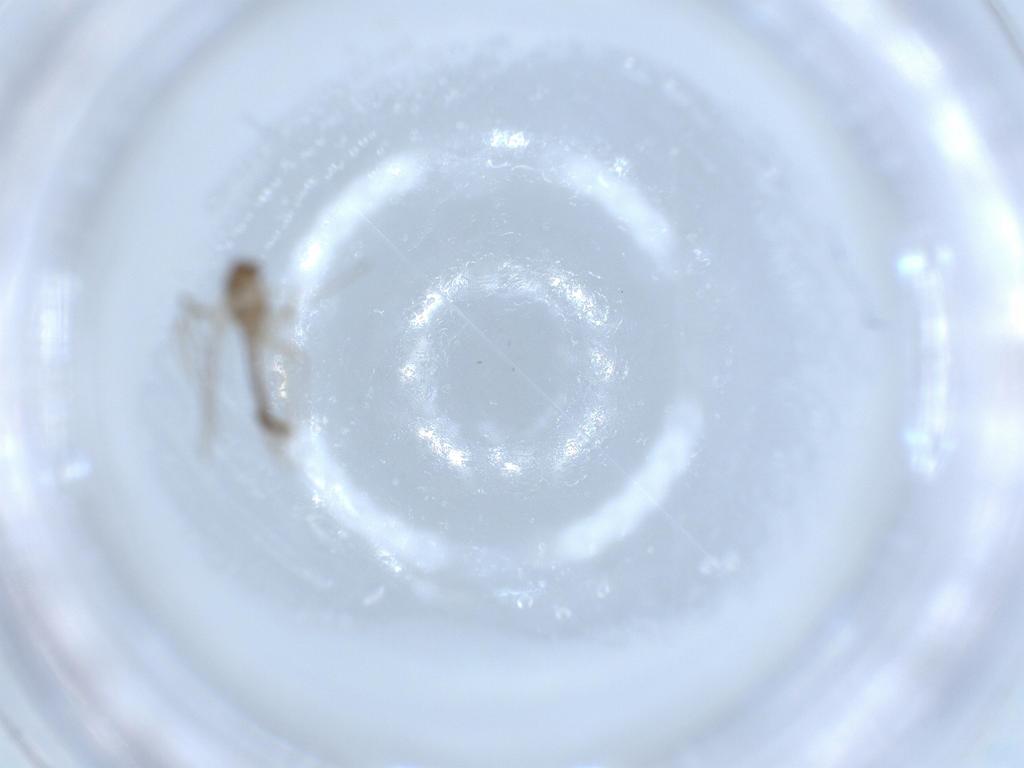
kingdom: Animalia
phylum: Arthropoda
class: Insecta
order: Diptera
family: Chironomidae
